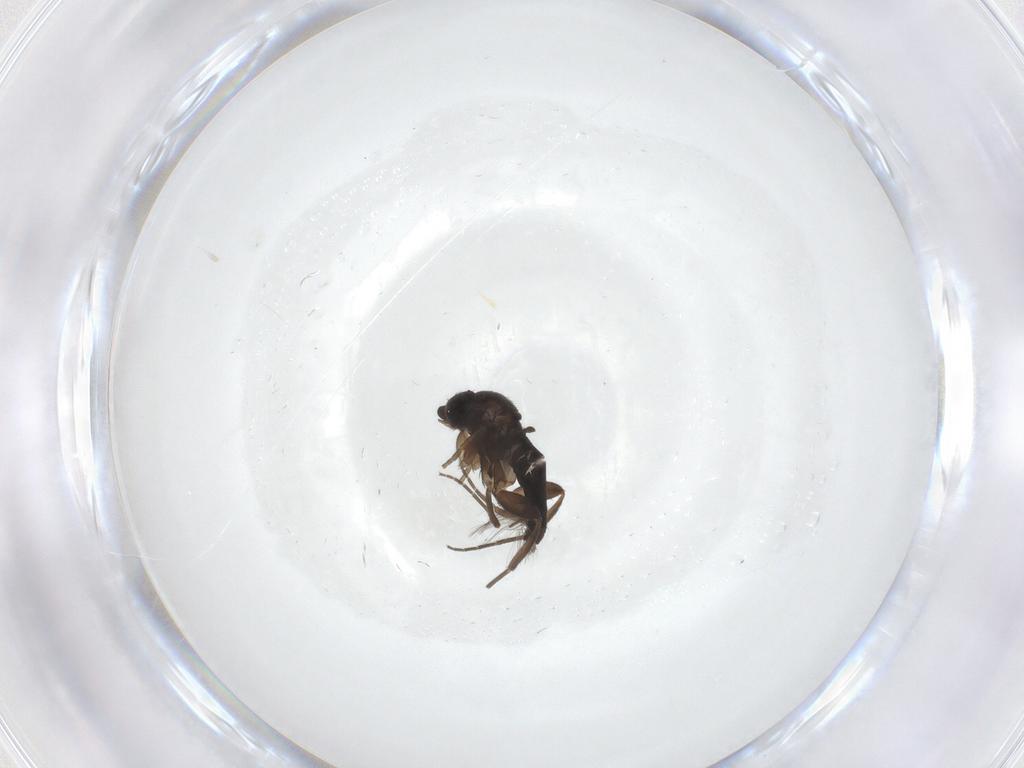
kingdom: Animalia
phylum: Arthropoda
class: Insecta
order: Diptera
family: Phoridae
